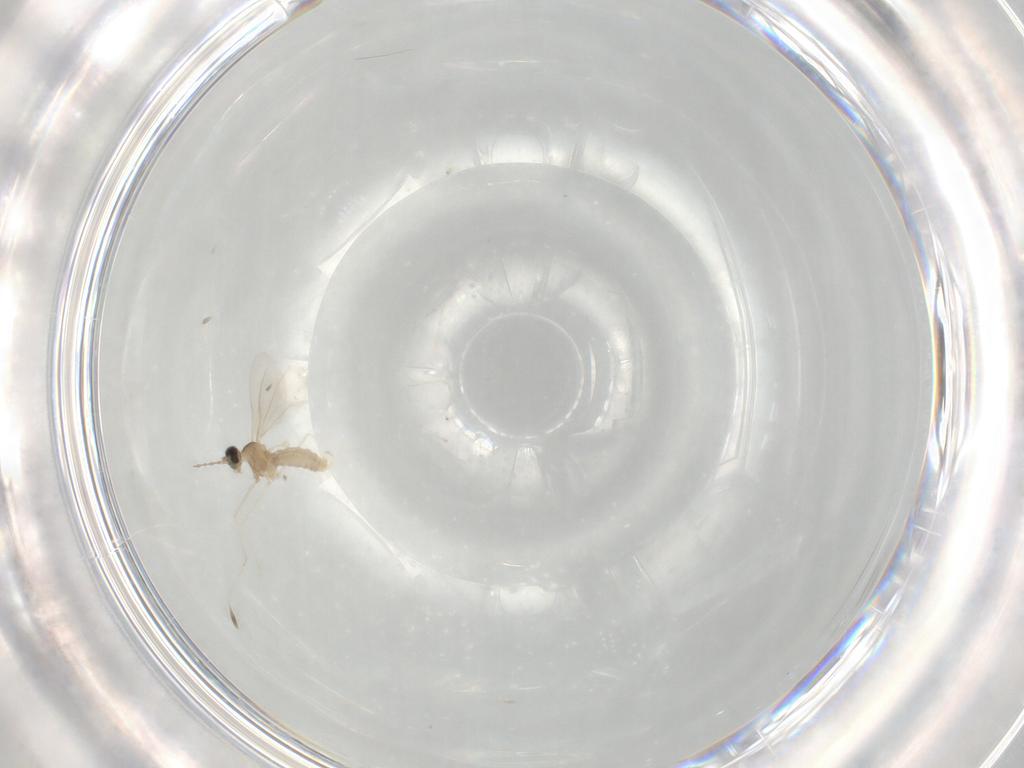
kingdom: Animalia
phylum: Arthropoda
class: Insecta
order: Diptera
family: Cecidomyiidae
